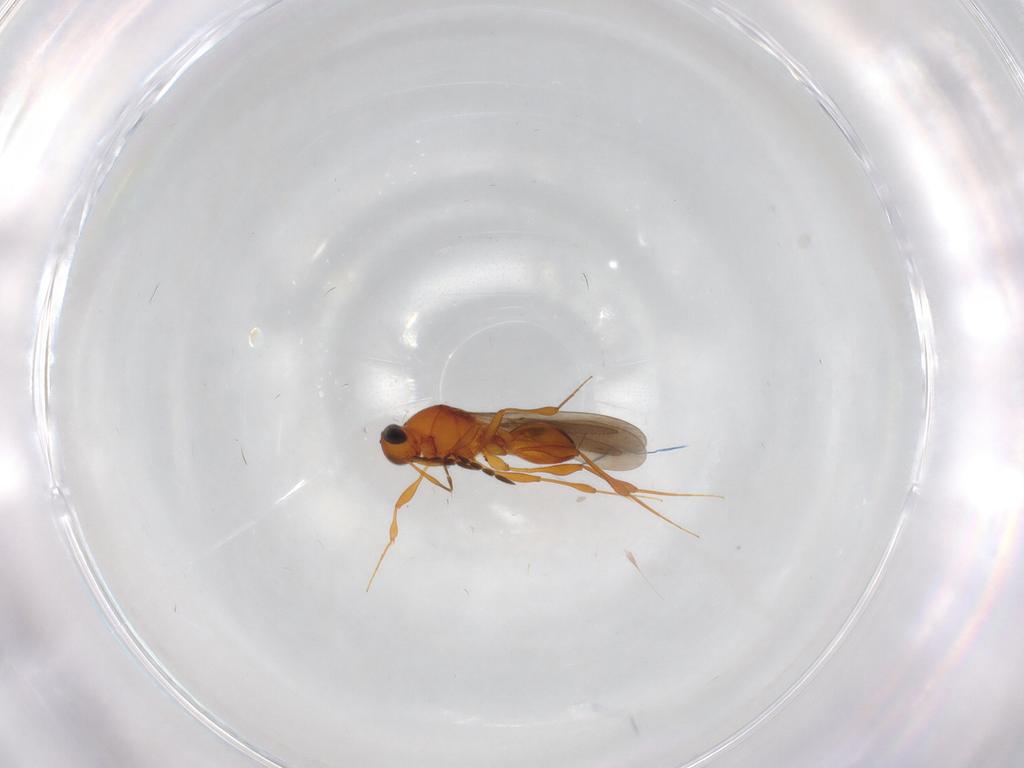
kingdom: Animalia
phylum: Arthropoda
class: Insecta
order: Hymenoptera
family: Platygastridae
